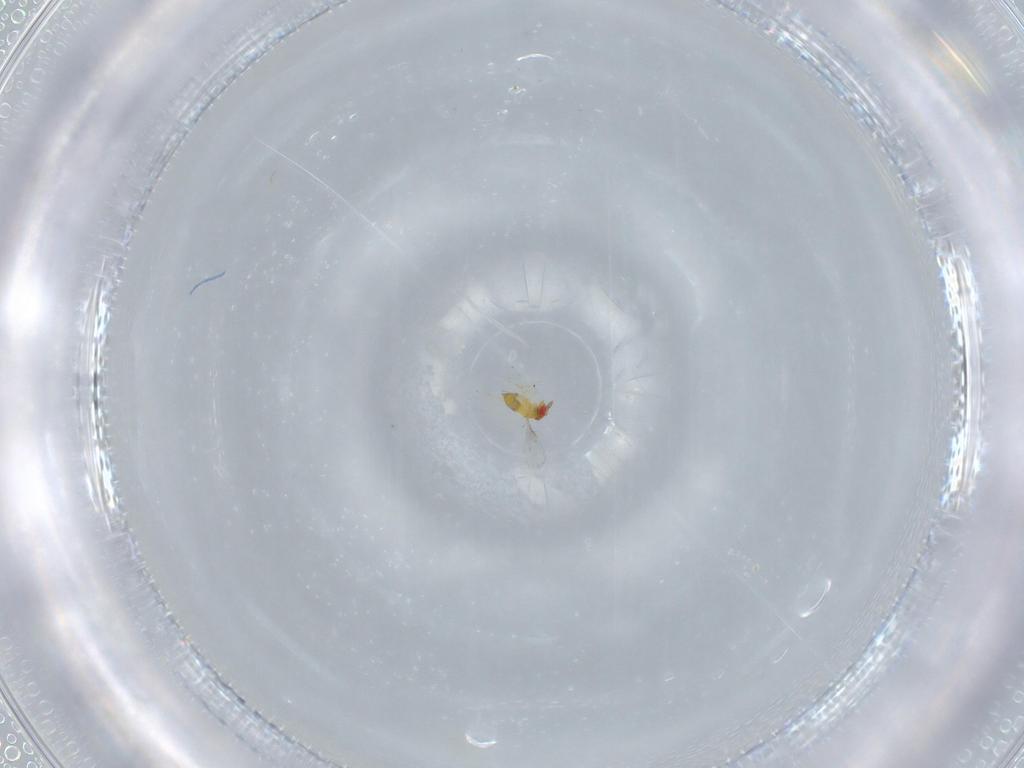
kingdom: Animalia
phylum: Arthropoda
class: Insecta
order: Hymenoptera
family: Trichogrammatidae
